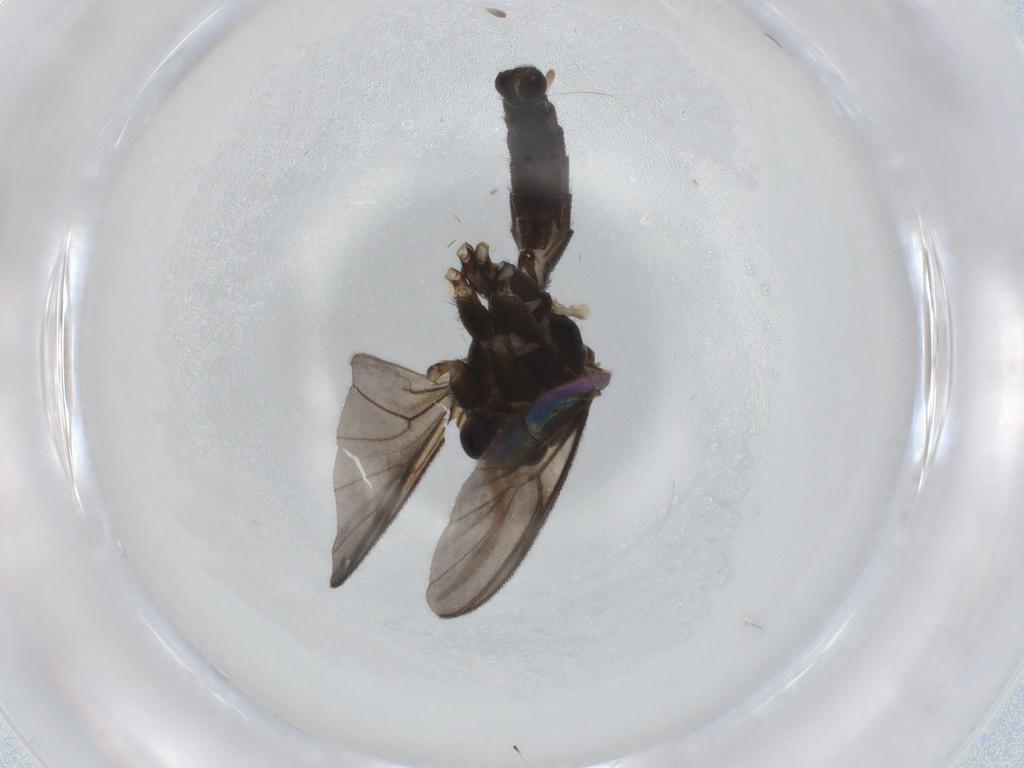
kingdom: Animalia
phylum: Arthropoda
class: Insecta
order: Diptera
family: Mycetophilidae
